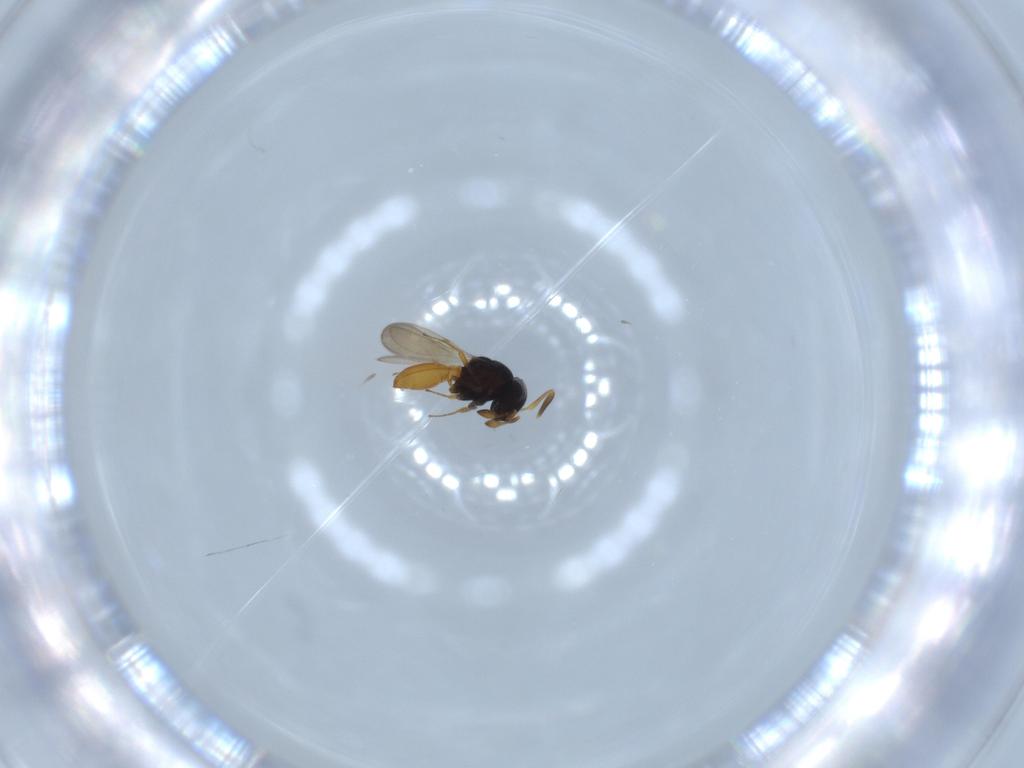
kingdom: Animalia
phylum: Arthropoda
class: Insecta
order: Hymenoptera
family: Scelionidae
